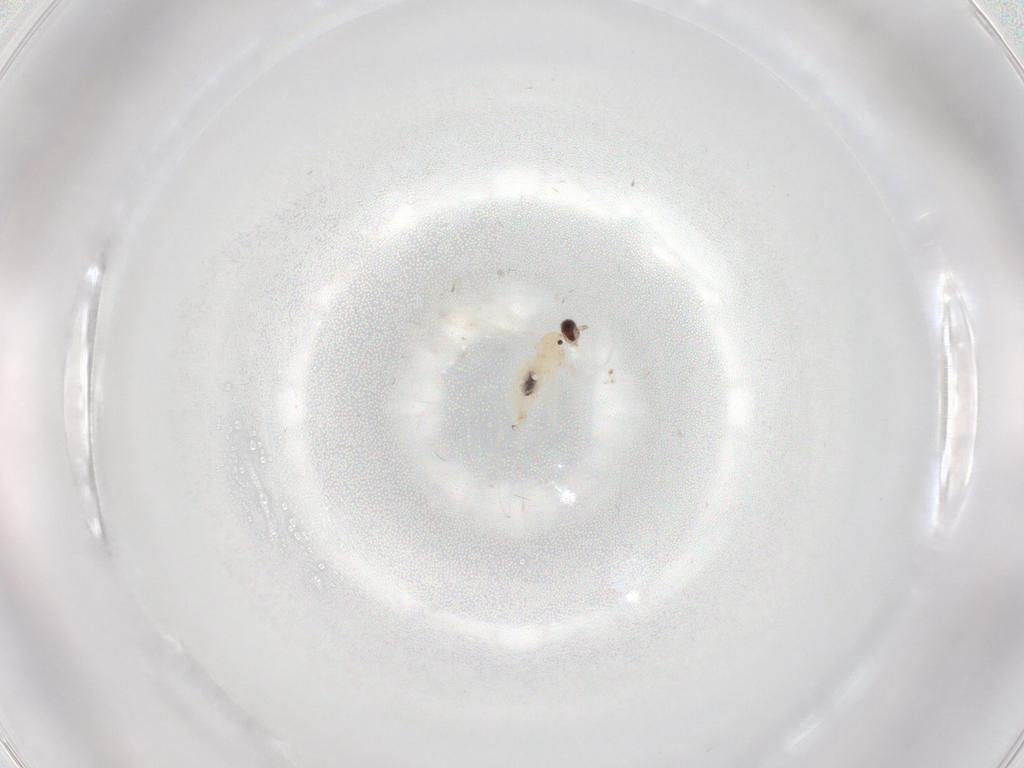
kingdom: Animalia
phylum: Arthropoda
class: Insecta
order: Diptera
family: Cecidomyiidae
